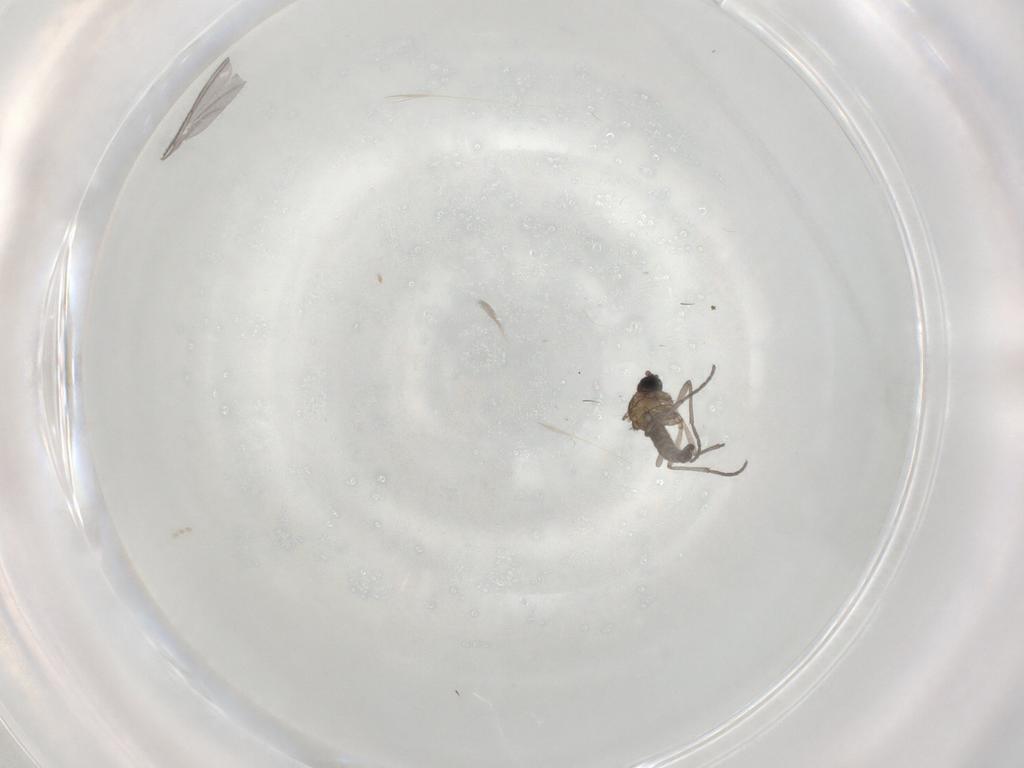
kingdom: Animalia
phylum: Arthropoda
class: Insecta
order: Diptera
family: Sciaridae
